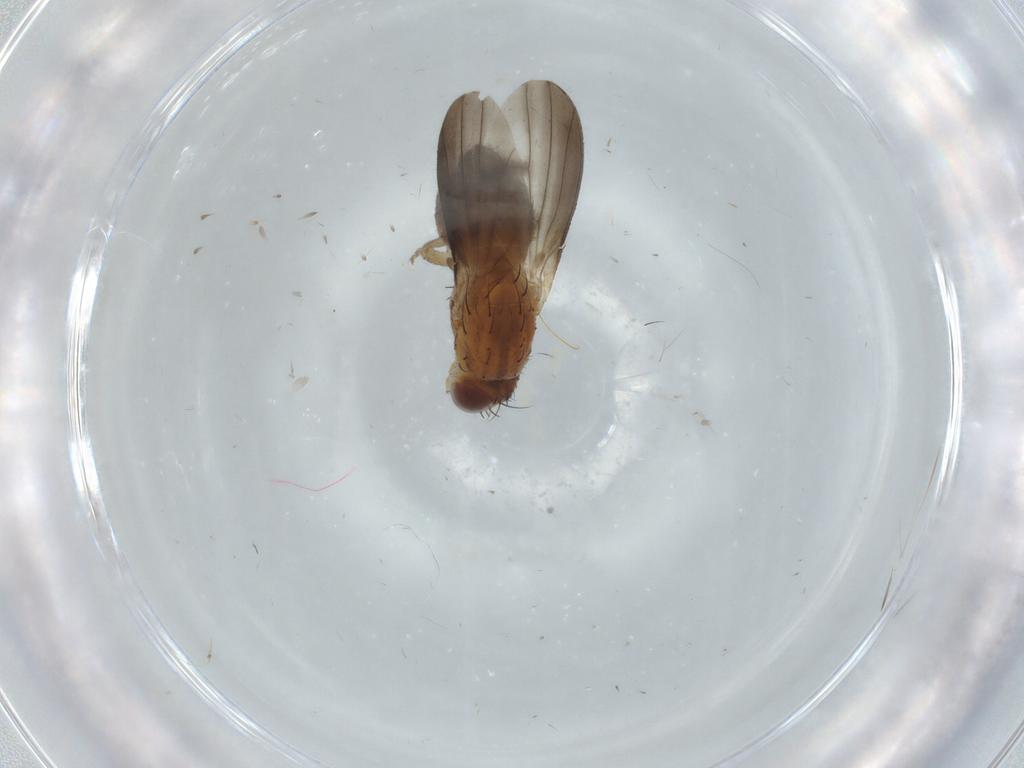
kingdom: Animalia
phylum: Arthropoda
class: Insecta
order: Diptera
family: Heleomyzidae
